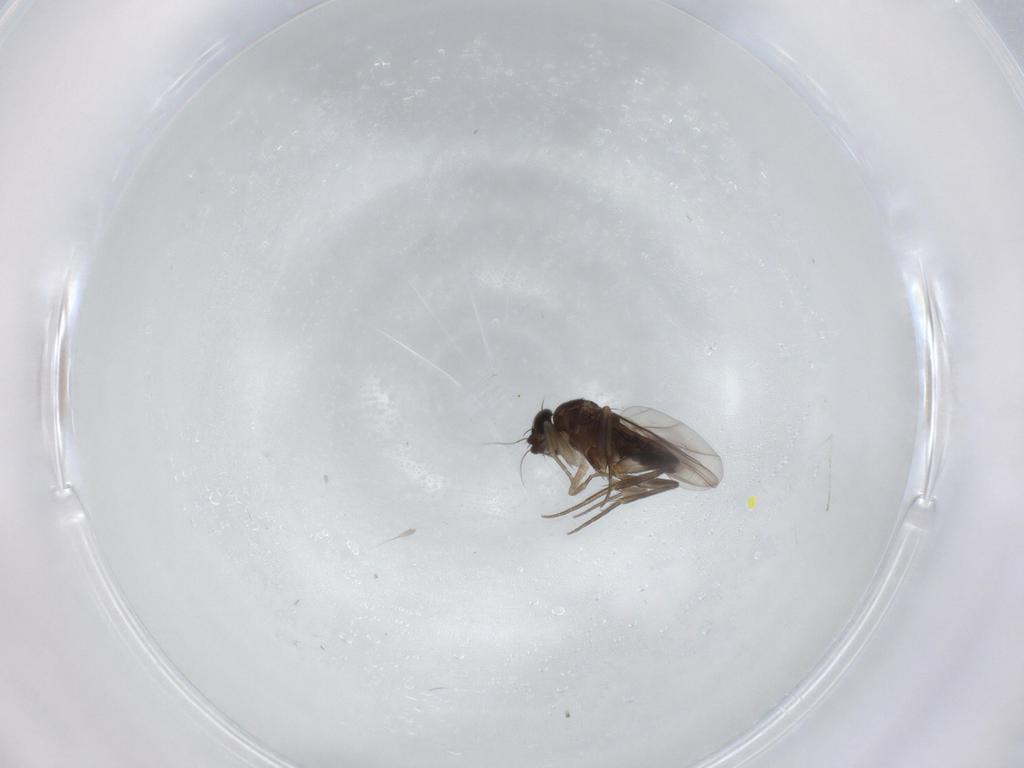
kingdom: Animalia
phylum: Arthropoda
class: Insecta
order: Diptera
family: Phoridae
